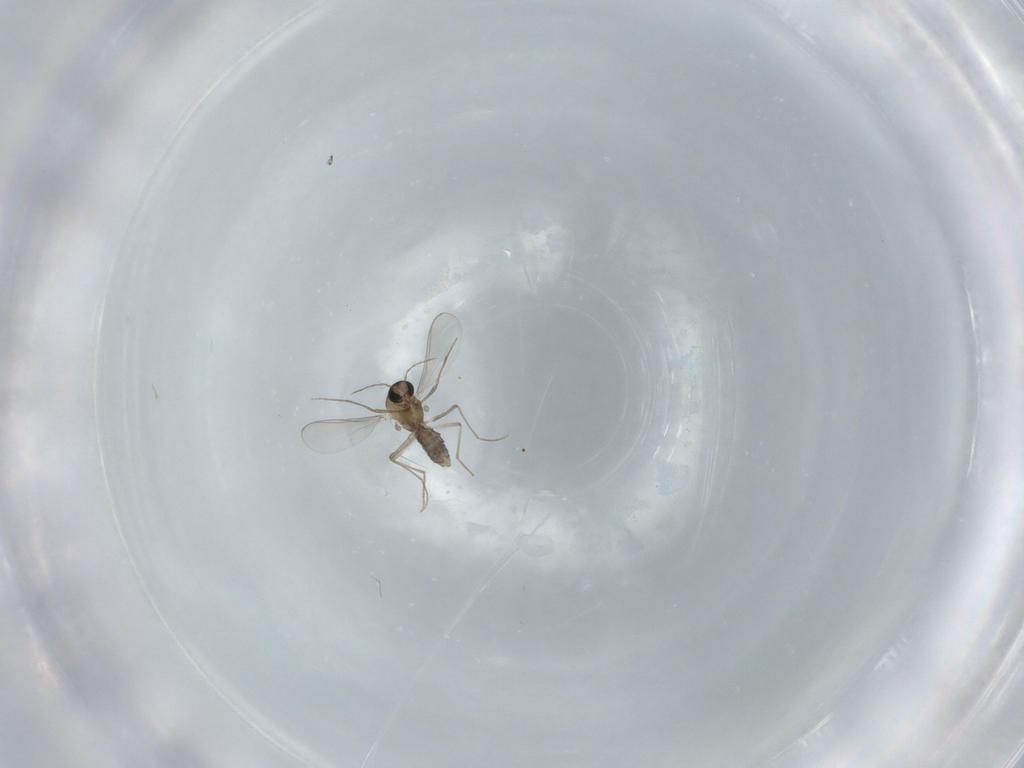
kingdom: Animalia
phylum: Arthropoda
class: Insecta
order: Diptera
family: Chironomidae
